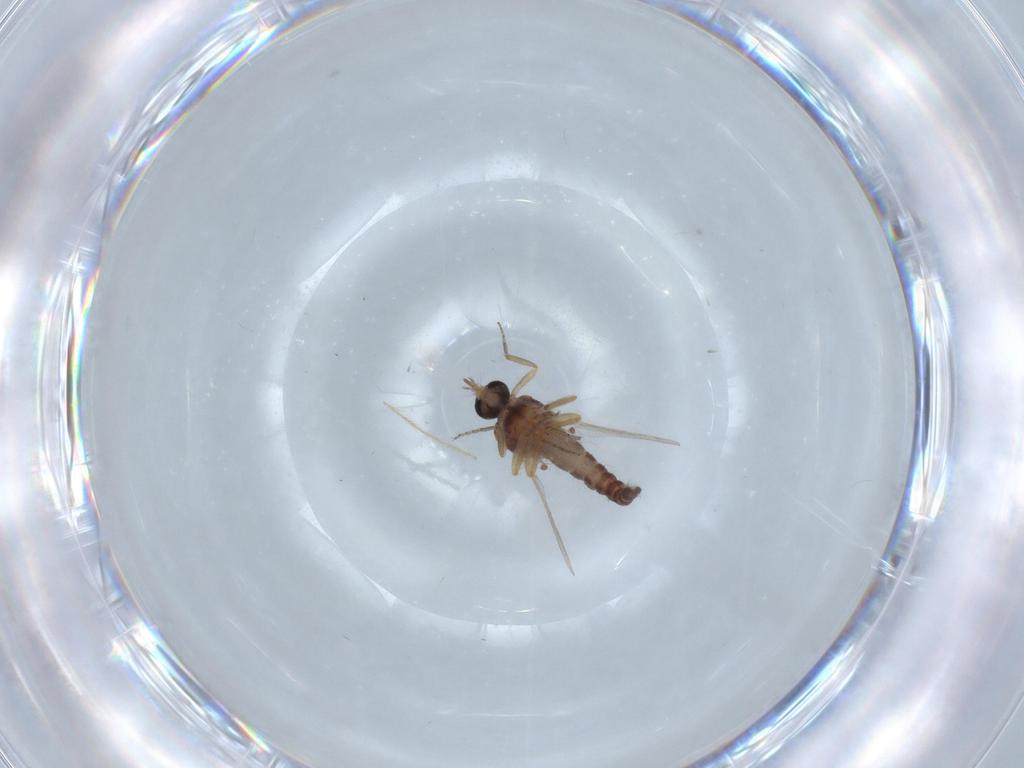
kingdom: Animalia
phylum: Arthropoda
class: Insecta
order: Diptera
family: Ceratopogonidae
